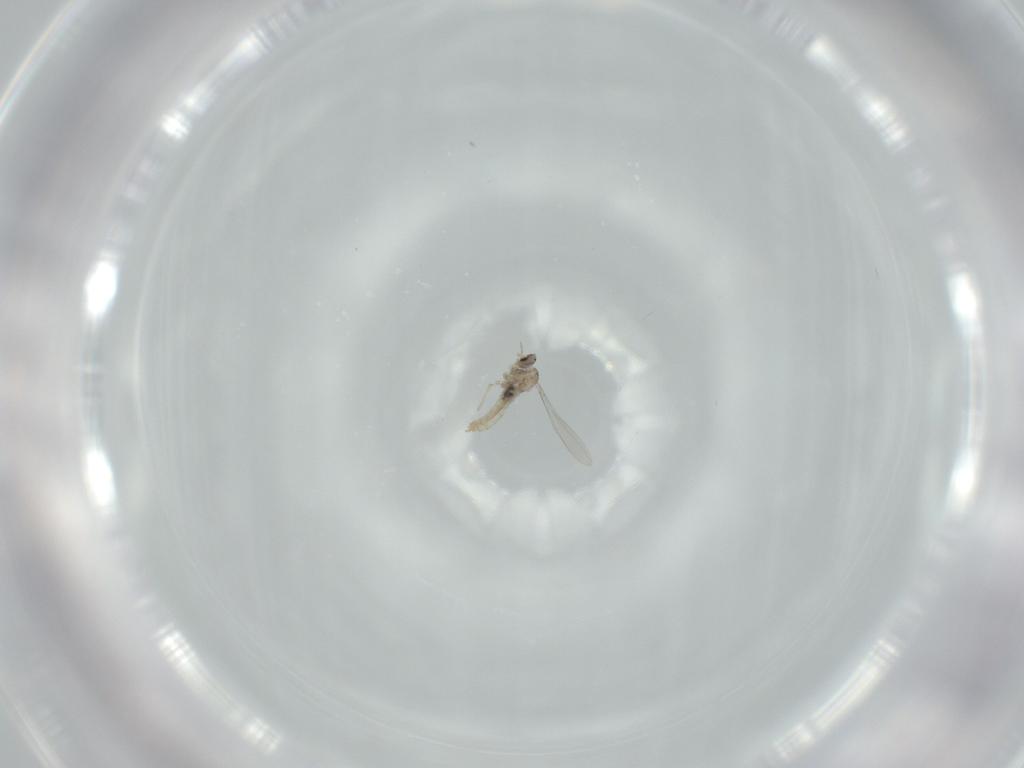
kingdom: Animalia
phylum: Arthropoda
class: Insecta
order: Diptera
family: Cecidomyiidae
